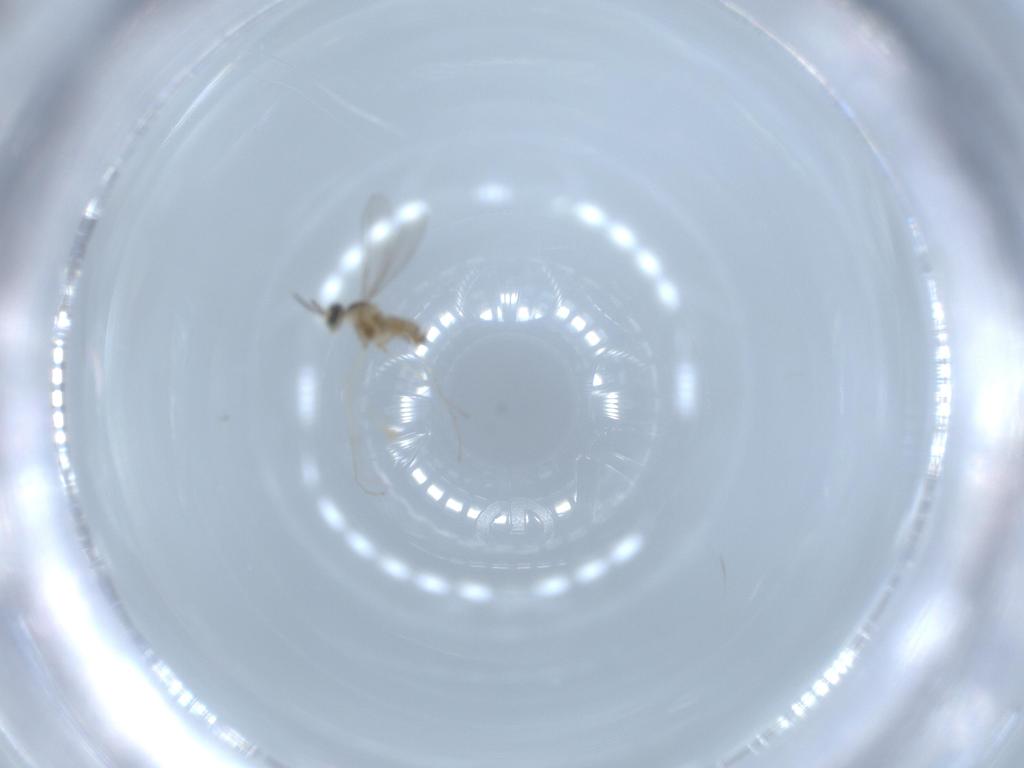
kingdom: Animalia
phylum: Arthropoda
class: Insecta
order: Diptera
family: Cecidomyiidae
